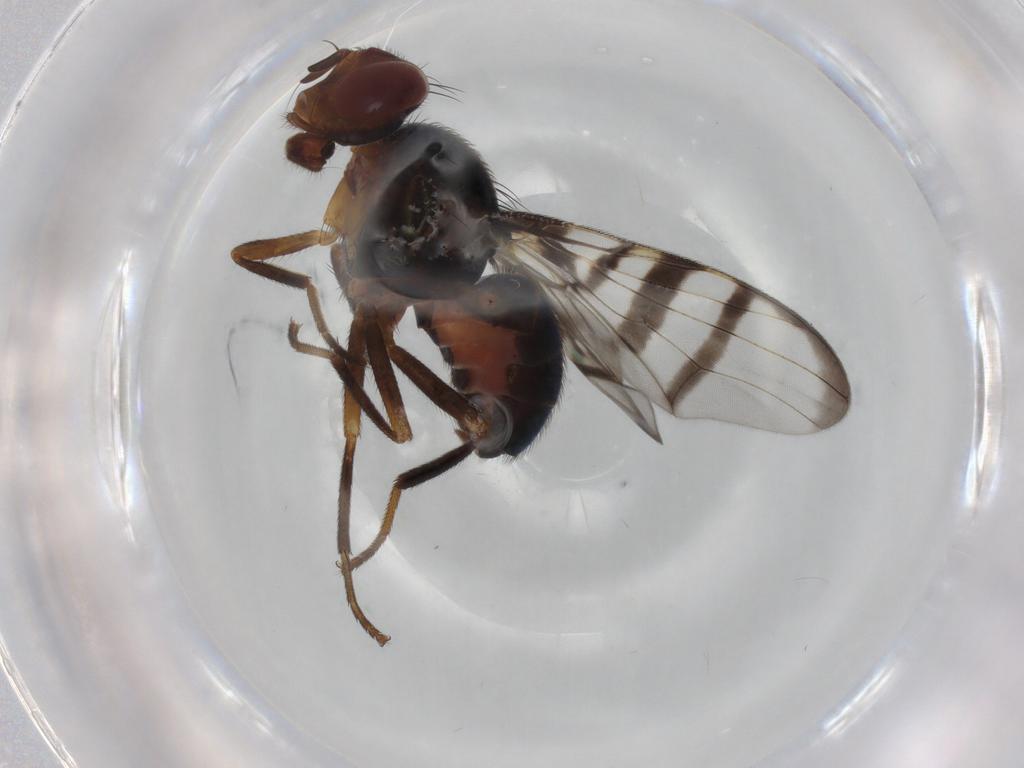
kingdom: Animalia
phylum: Arthropoda
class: Insecta
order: Diptera
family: Platystomatidae
